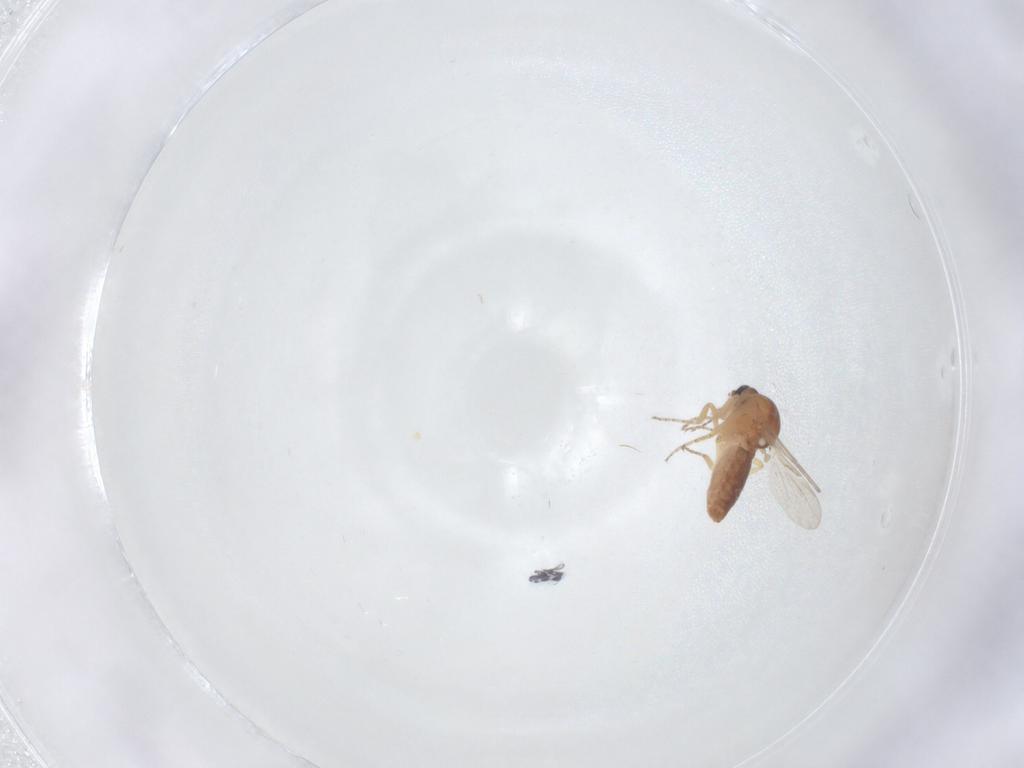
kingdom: Animalia
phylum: Arthropoda
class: Insecta
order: Diptera
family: Ceratopogonidae
